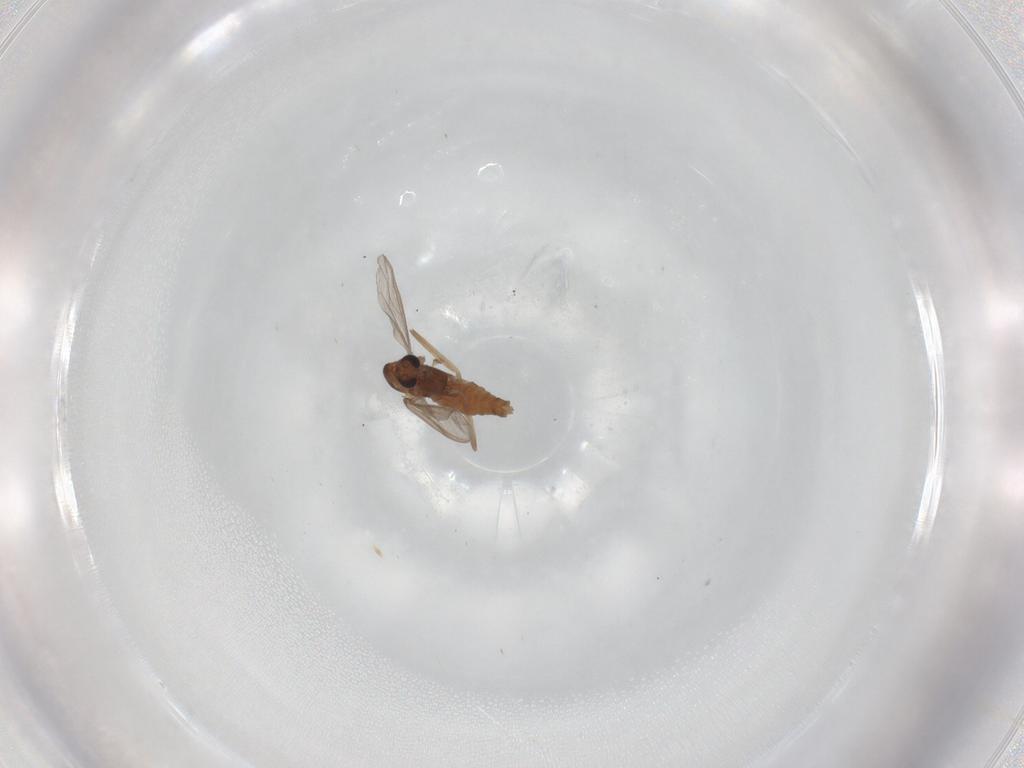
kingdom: Animalia
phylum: Arthropoda
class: Insecta
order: Diptera
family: Chironomidae
